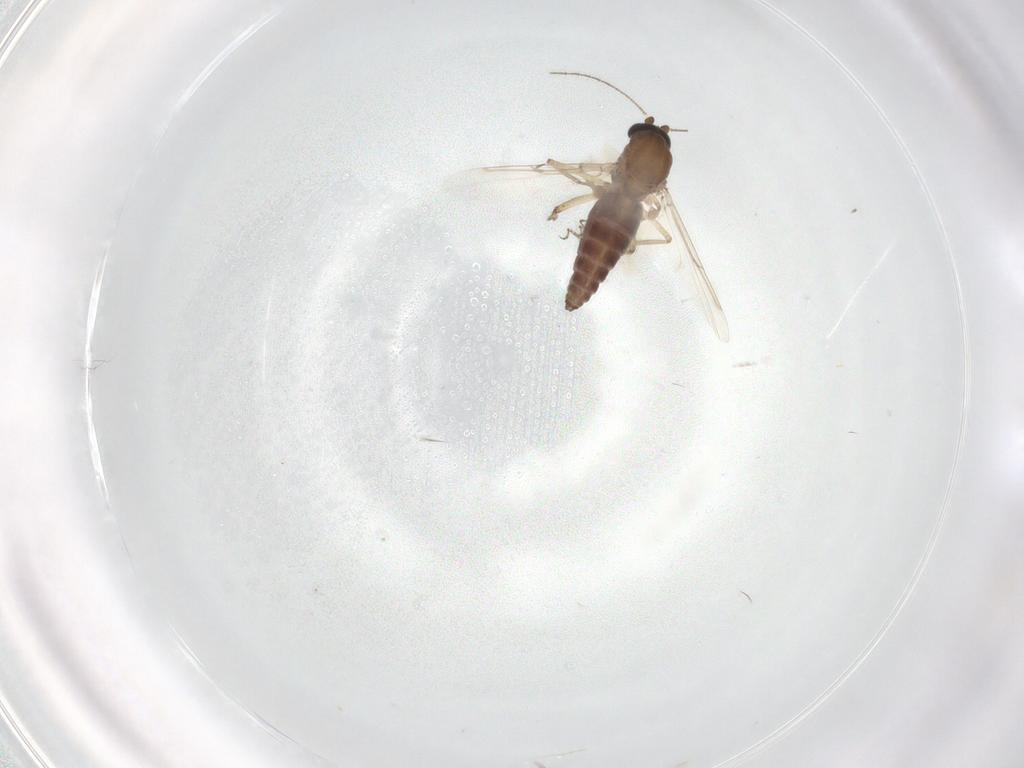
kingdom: Animalia
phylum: Arthropoda
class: Insecta
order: Diptera
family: Ceratopogonidae
